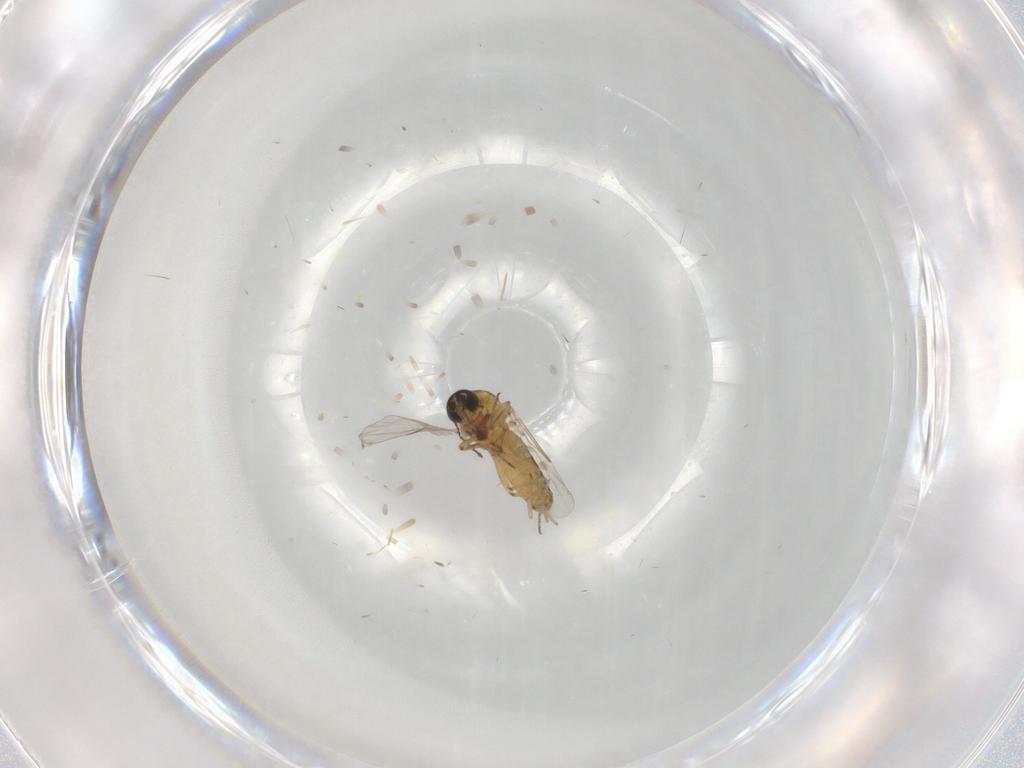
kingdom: Animalia
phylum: Arthropoda
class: Insecta
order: Diptera
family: Ceratopogonidae
